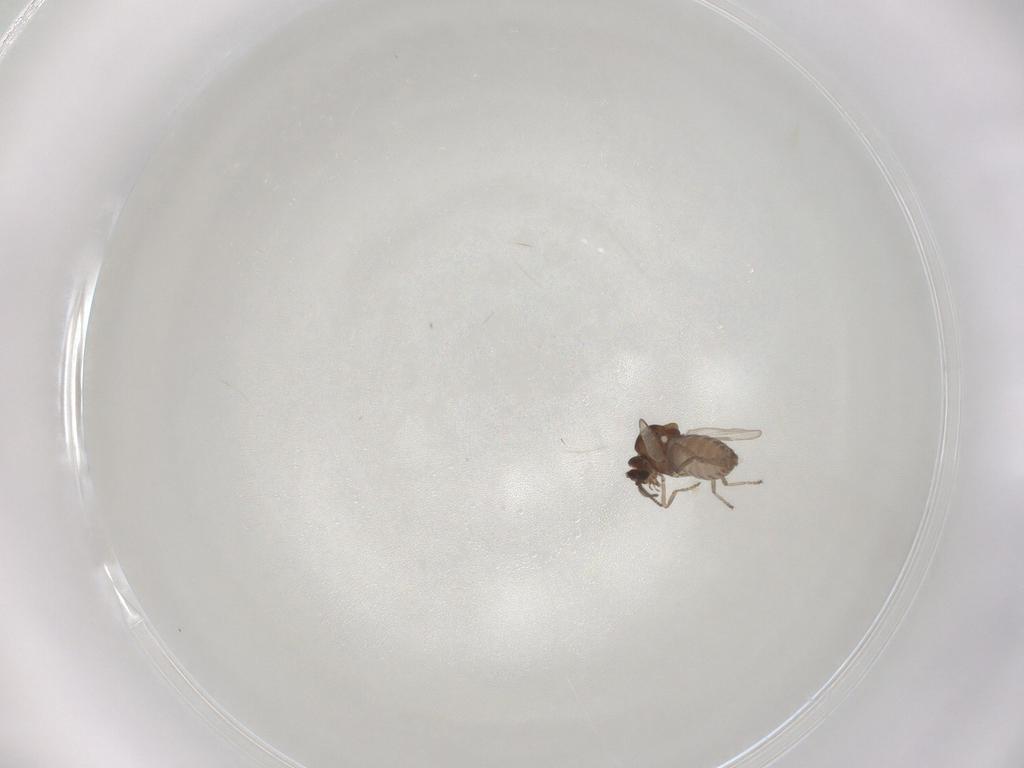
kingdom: Animalia
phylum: Arthropoda
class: Insecta
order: Diptera
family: Ceratopogonidae
